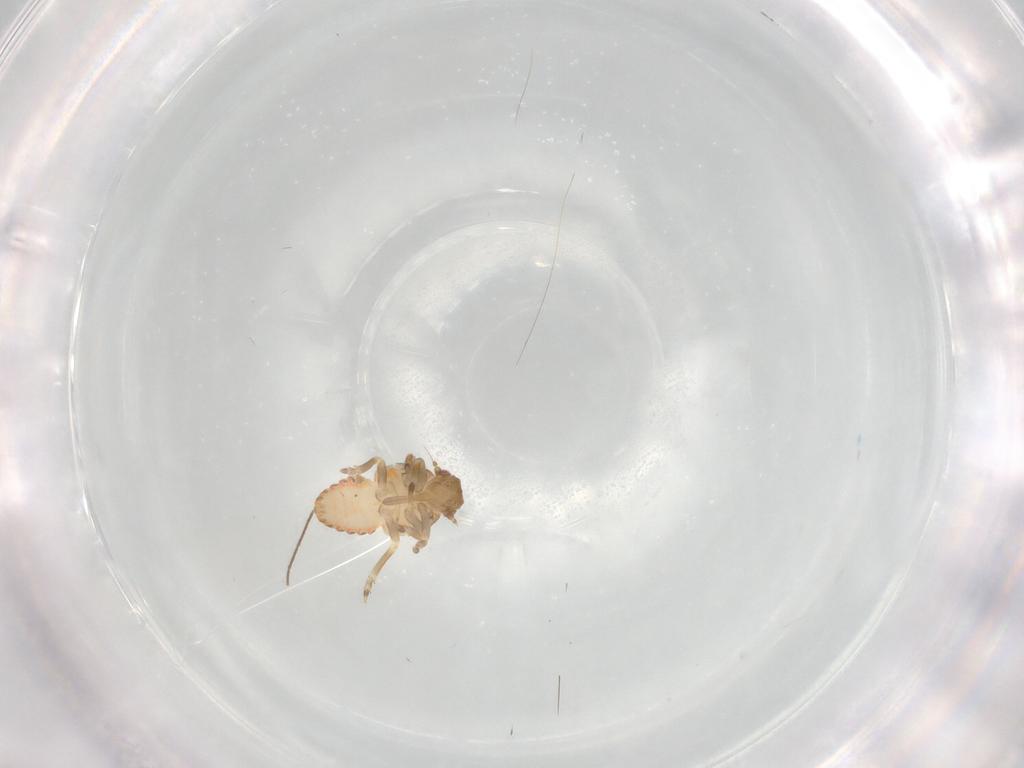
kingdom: Animalia
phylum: Arthropoda
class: Insecta
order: Hemiptera
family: Flatidae
